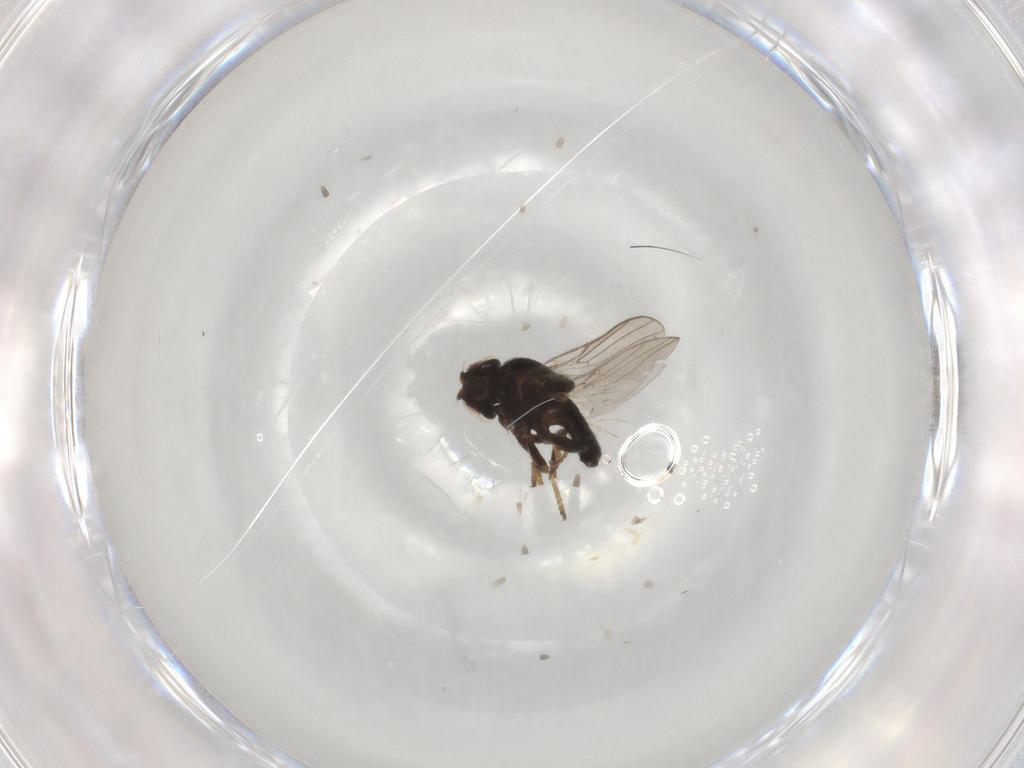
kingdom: Animalia
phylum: Arthropoda
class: Insecta
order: Diptera
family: Chloropidae
